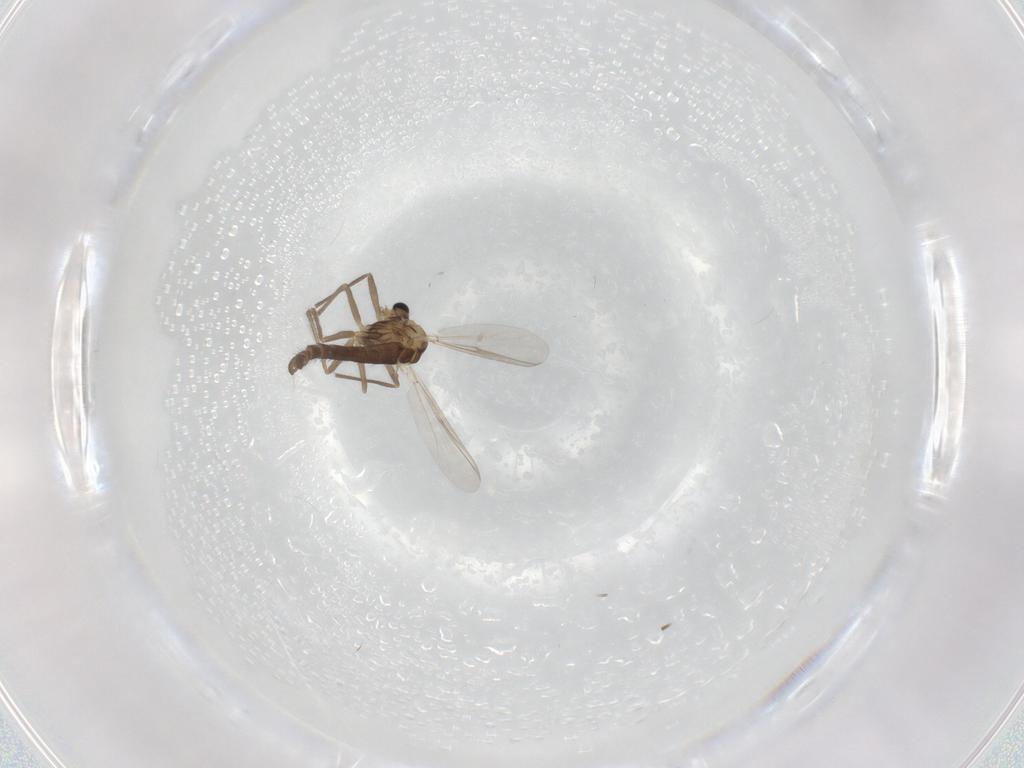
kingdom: Animalia
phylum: Arthropoda
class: Insecta
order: Diptera
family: Chironomidae
